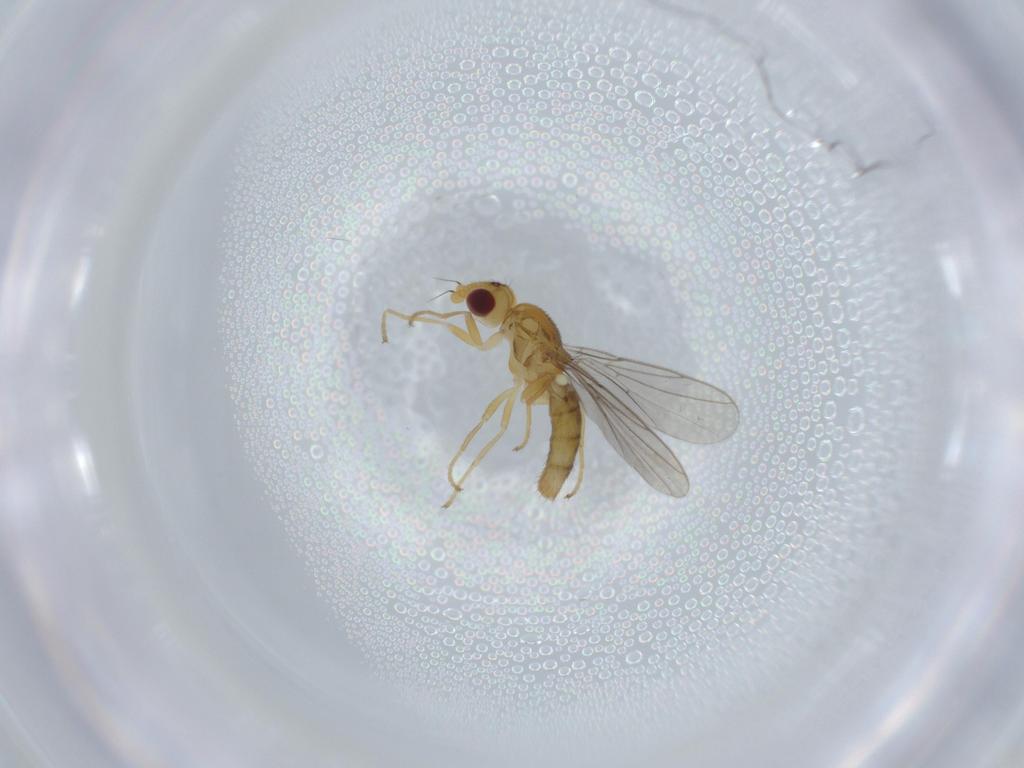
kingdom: Animalia
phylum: Arthropoda
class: Insecta
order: Diptera
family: Chloropidae
